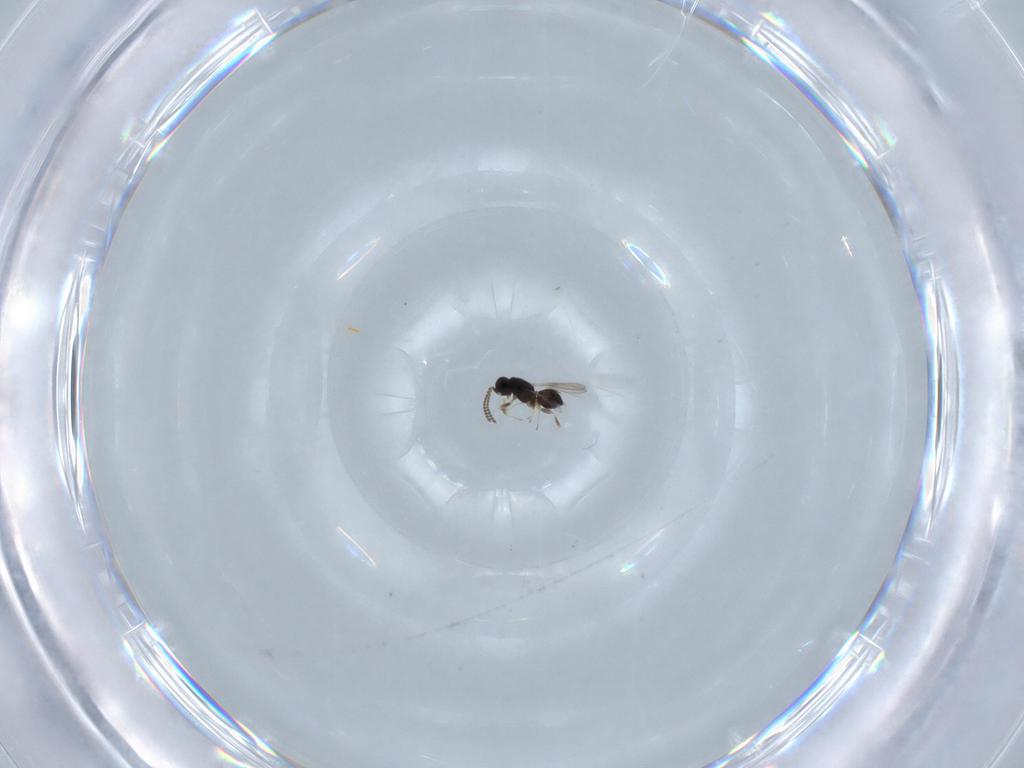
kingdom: Animalia
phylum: Arthropoda
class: Insecta
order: Hymenoptera
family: Scelionidae
